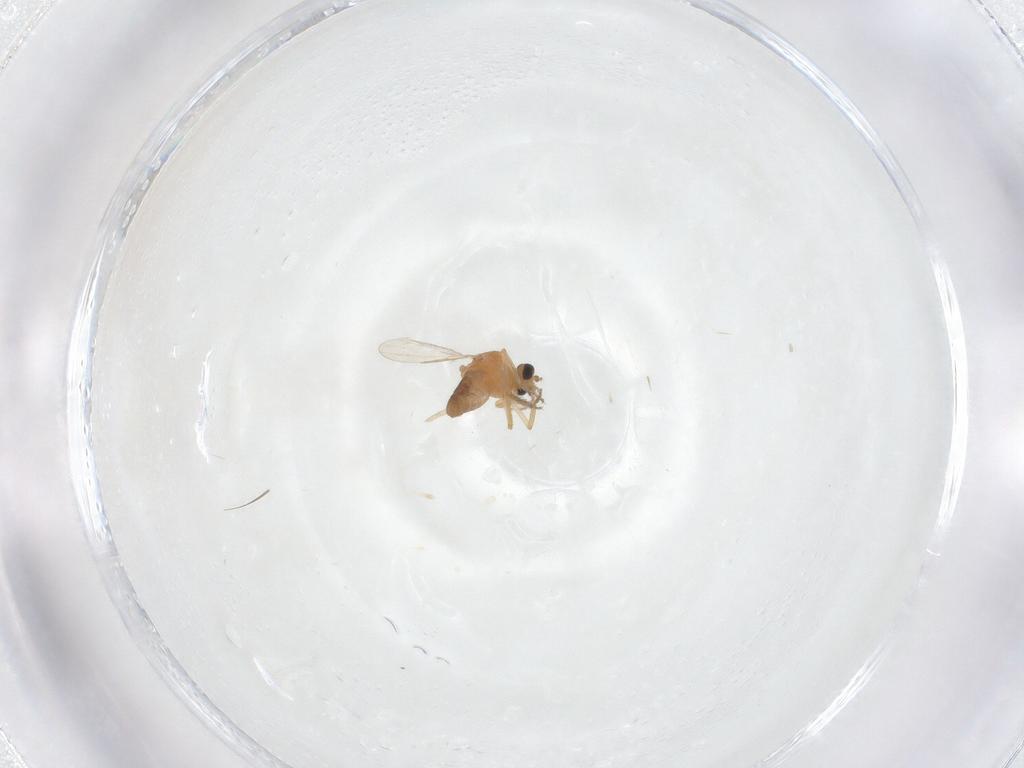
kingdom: Animalia
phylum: Arthropoda
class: Insecta
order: Diptera
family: Ceratopogonidae
